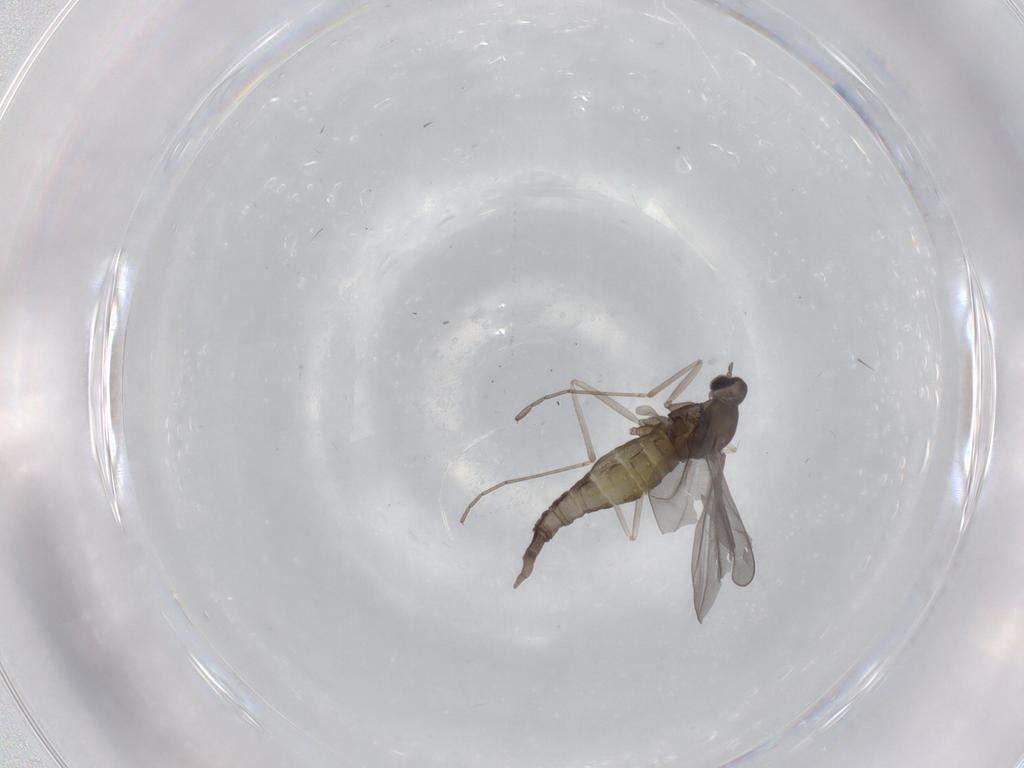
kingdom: Animalia
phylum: Arthropoda
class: Insecta
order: Diptera
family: Cecidomyiidae
